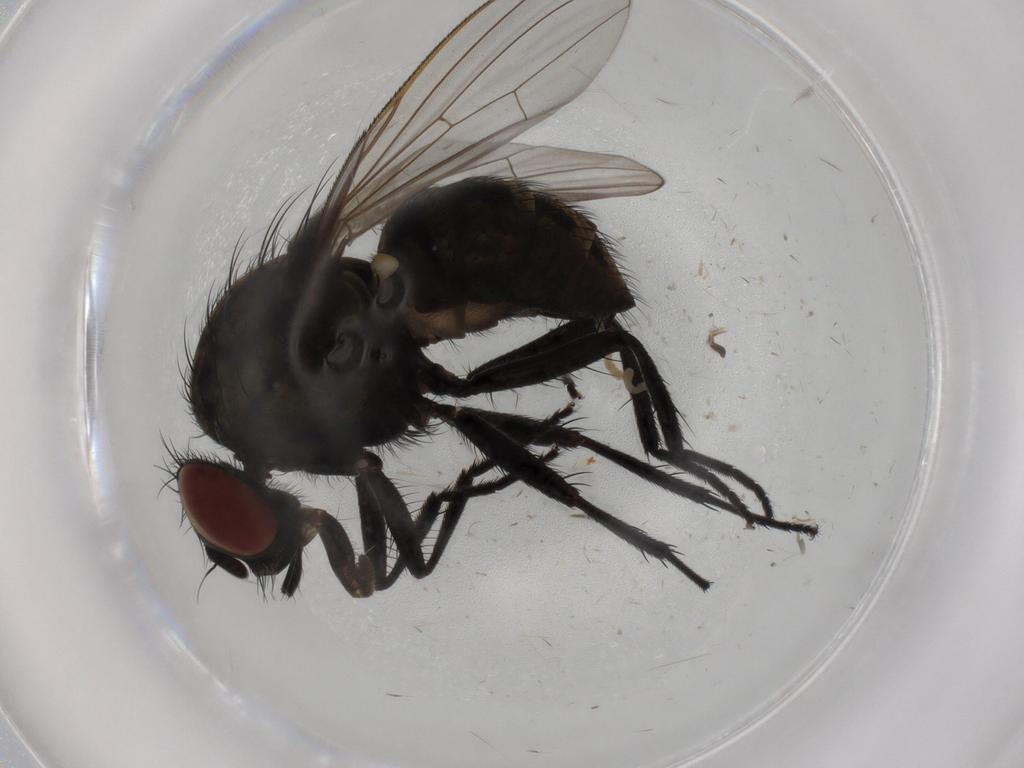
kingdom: Animalia
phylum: Arthropoda
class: Insecta
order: Diptera
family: Anthomyiidae
